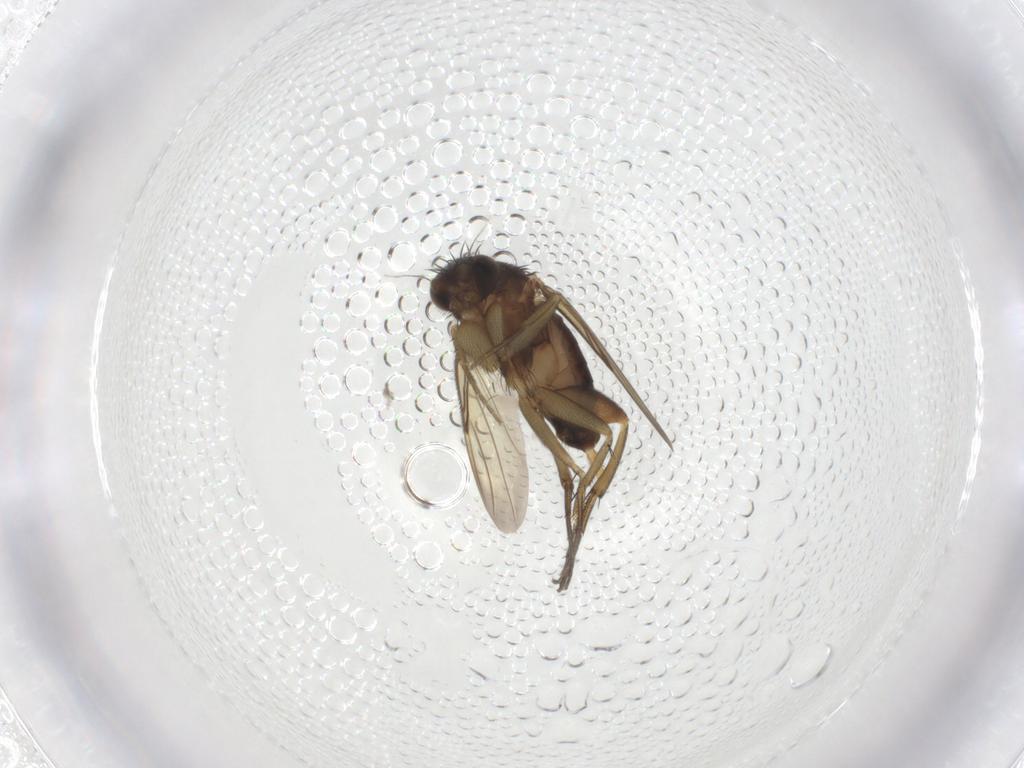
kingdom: Animalia
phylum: Arthropoda
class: Insecta
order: Diptera
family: Phoridae
